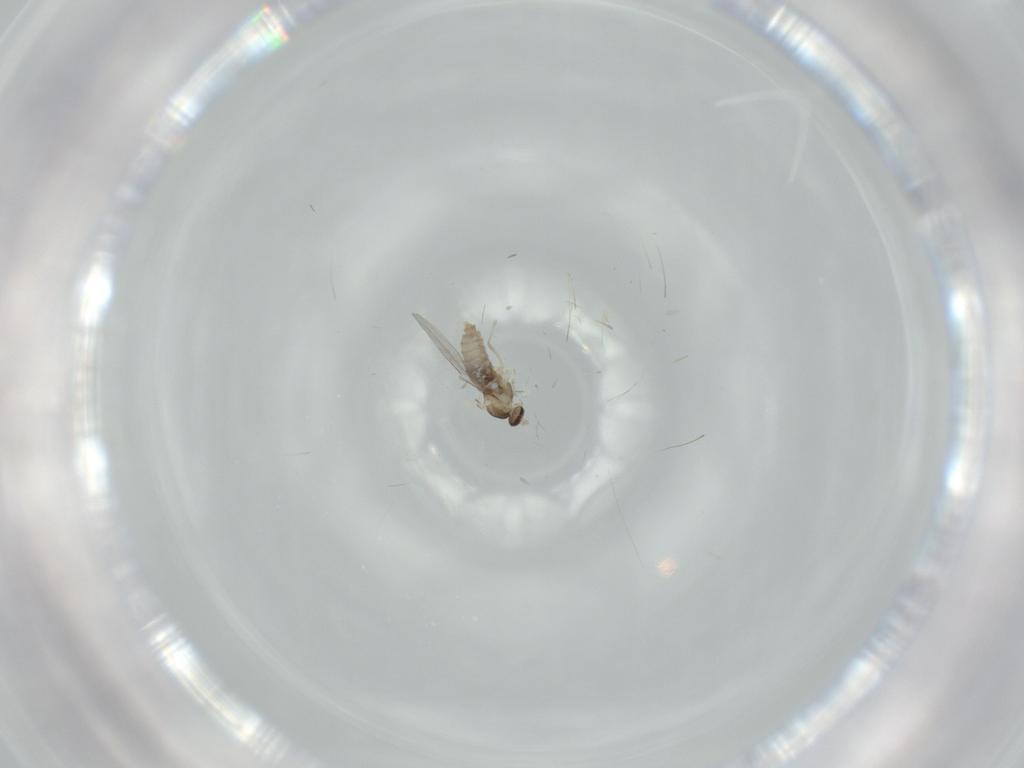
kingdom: Animalia
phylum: Arthropoda
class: Insecta
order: Diptera
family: Cecidomyiidae
